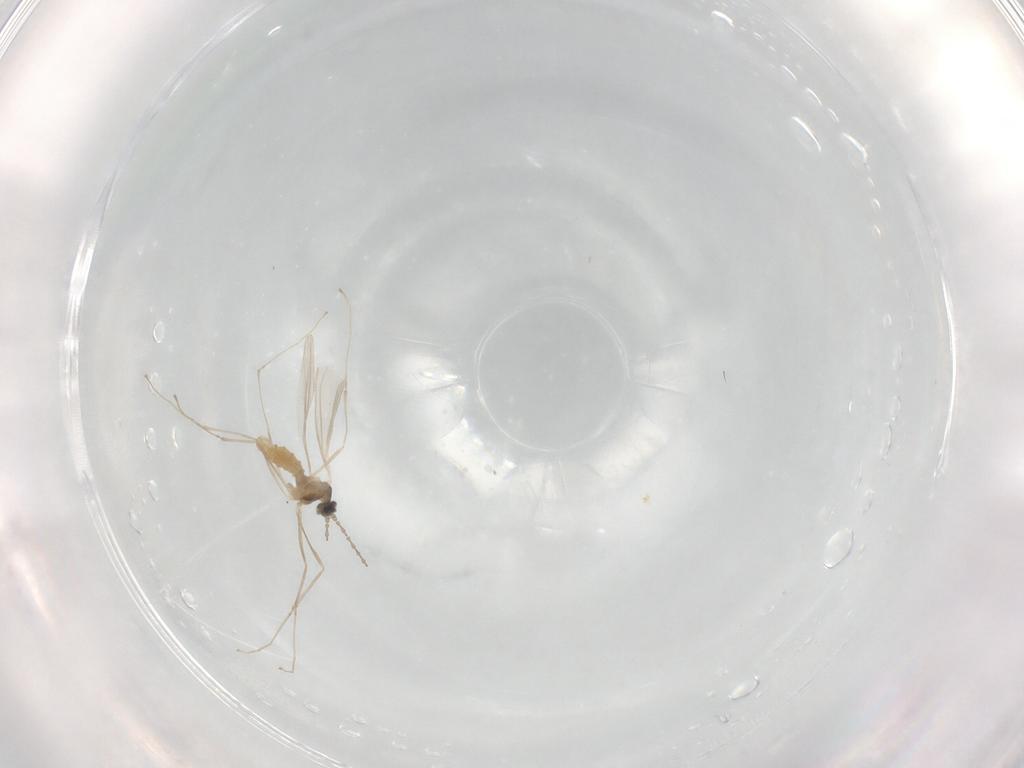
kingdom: Animalia
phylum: Arthropoda
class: Insecta
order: Diptera
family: Cecidomyiidae
